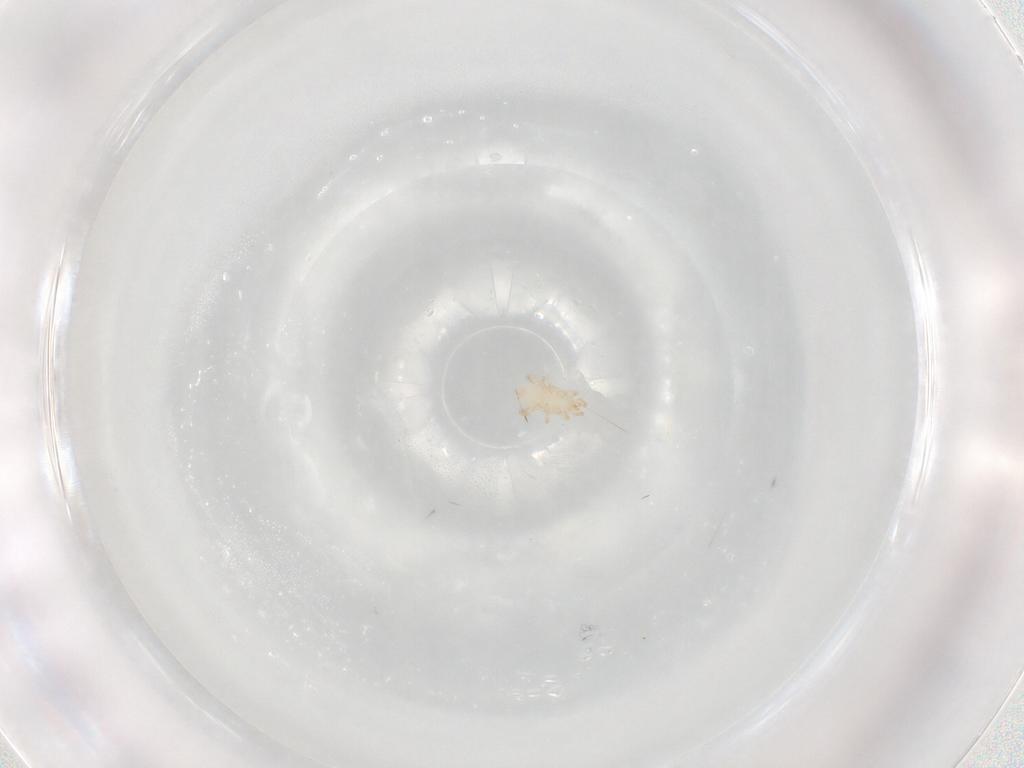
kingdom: Animalia
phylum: Arthropoda
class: Arachnida
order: Mesostigmata
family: Melicharidae
